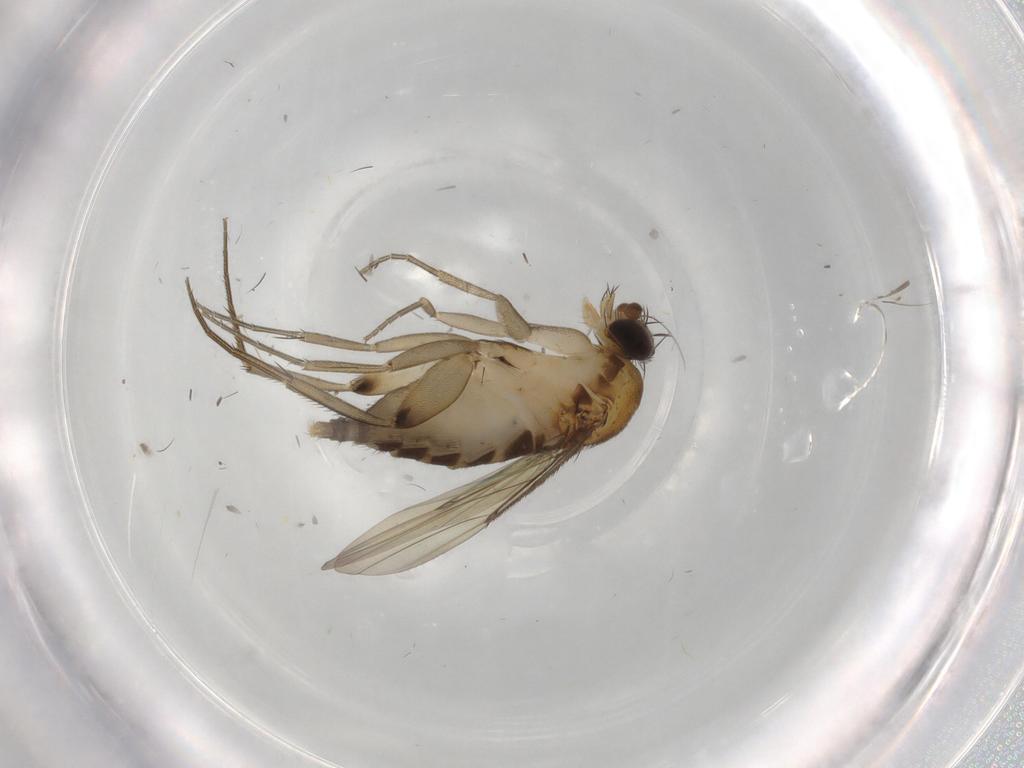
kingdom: Animalia
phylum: Arthropoda
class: Insecta
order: Diptera
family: Phoridae
